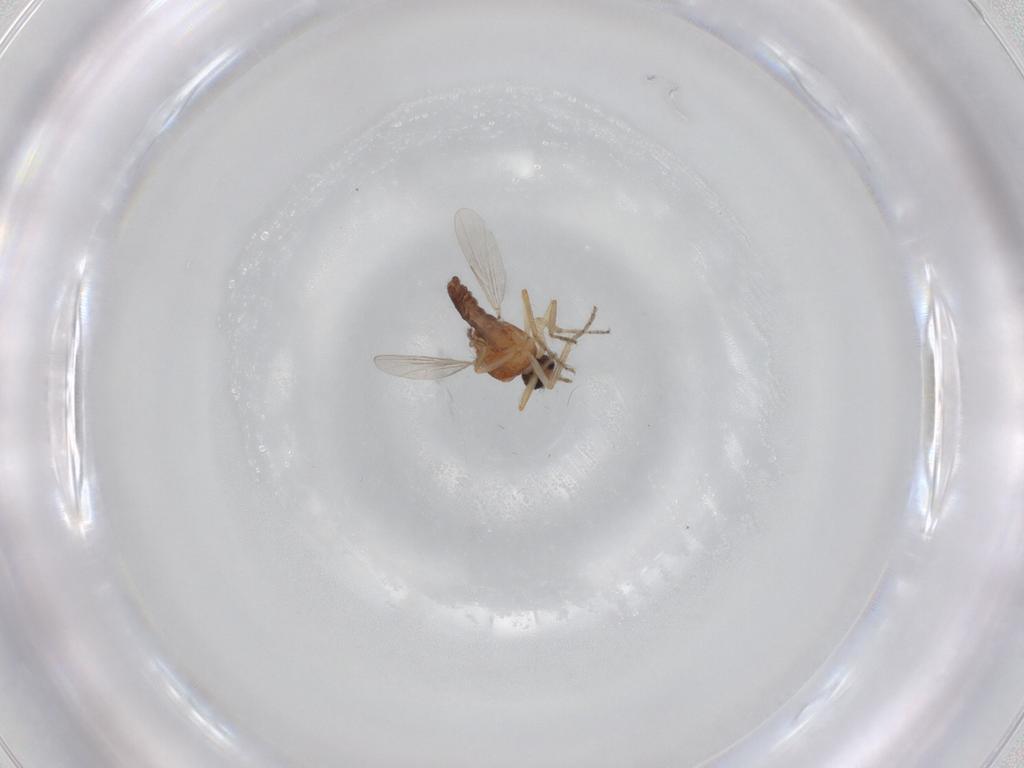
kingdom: Animalia
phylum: Arthropoda
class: Insecta
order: Diptera
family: Ceratopogonidae
